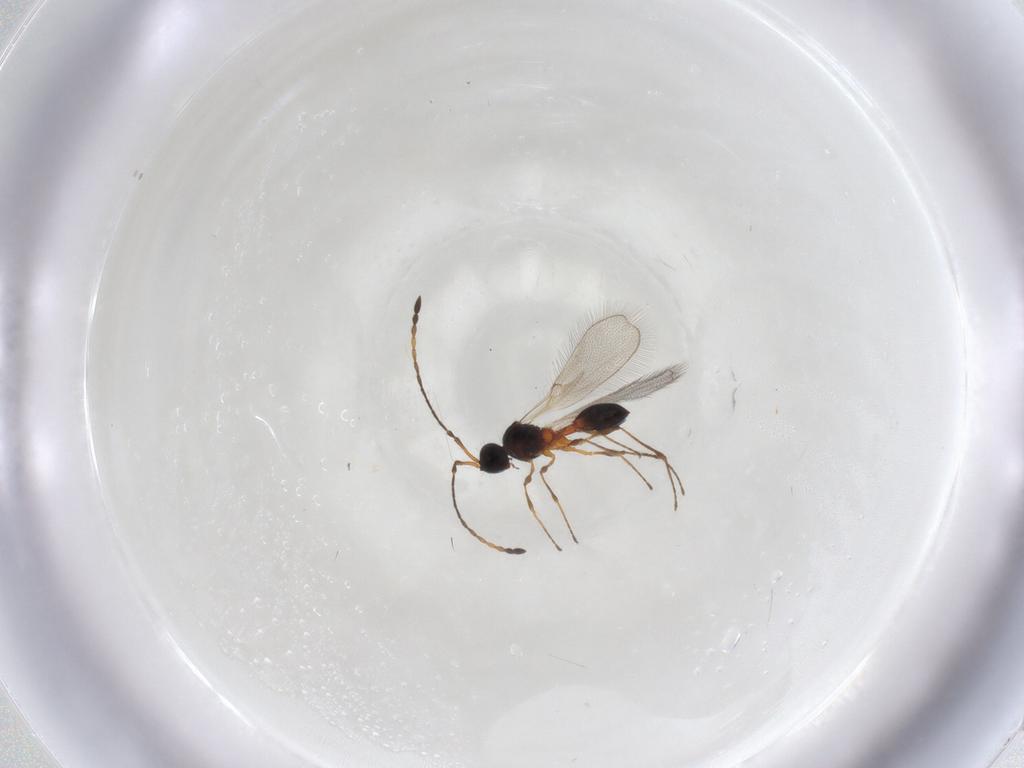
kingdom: Animalia
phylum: Arthropoda
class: Insecta
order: Hymenoptera
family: Diapriidae
